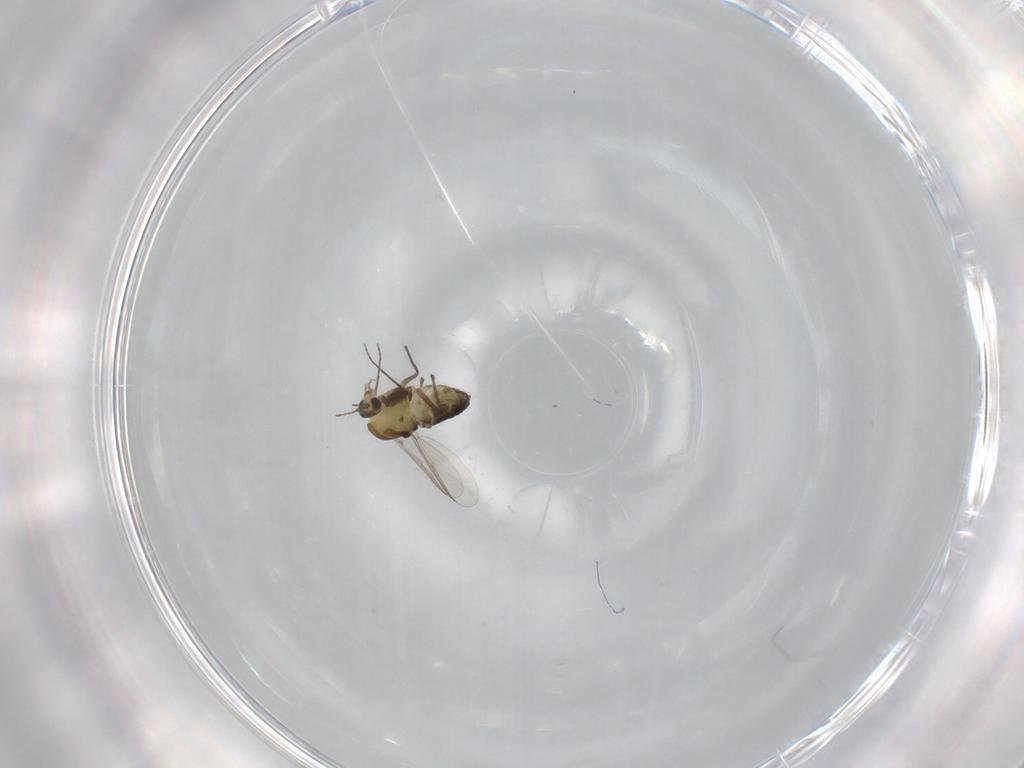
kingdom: Animalia
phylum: Arthropoda
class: Insecta
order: Diptera
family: Chironomidae
